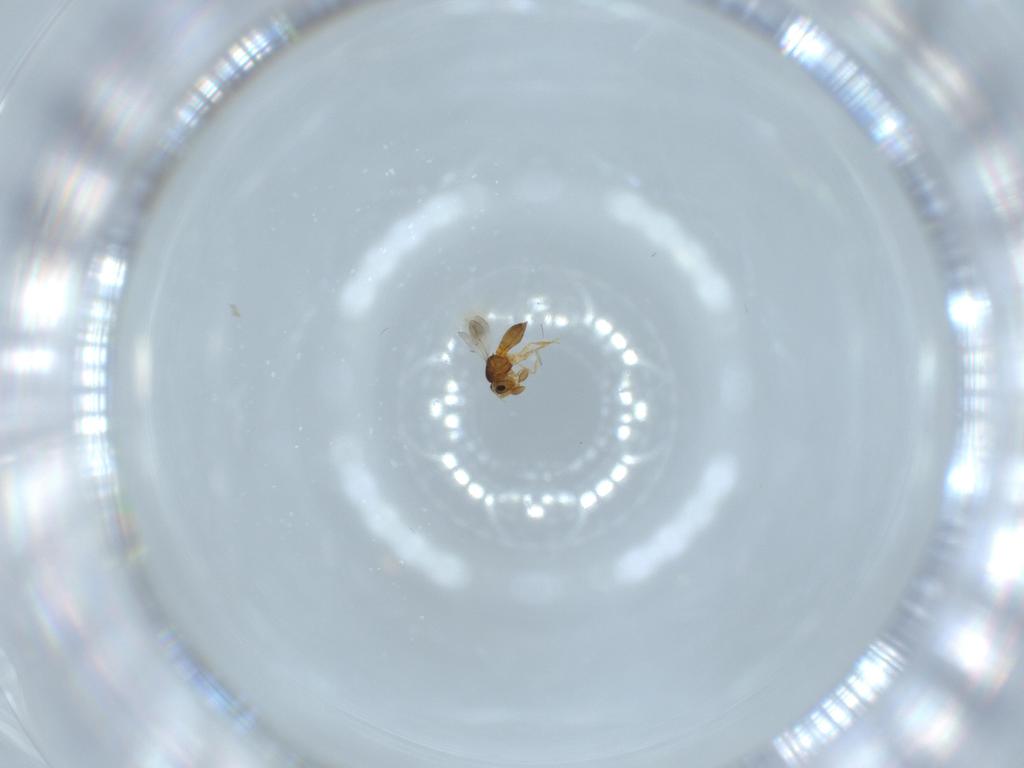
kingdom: Animalia
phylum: Arthropoda
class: Insecta
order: Hymenoptera
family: Scelionidae
